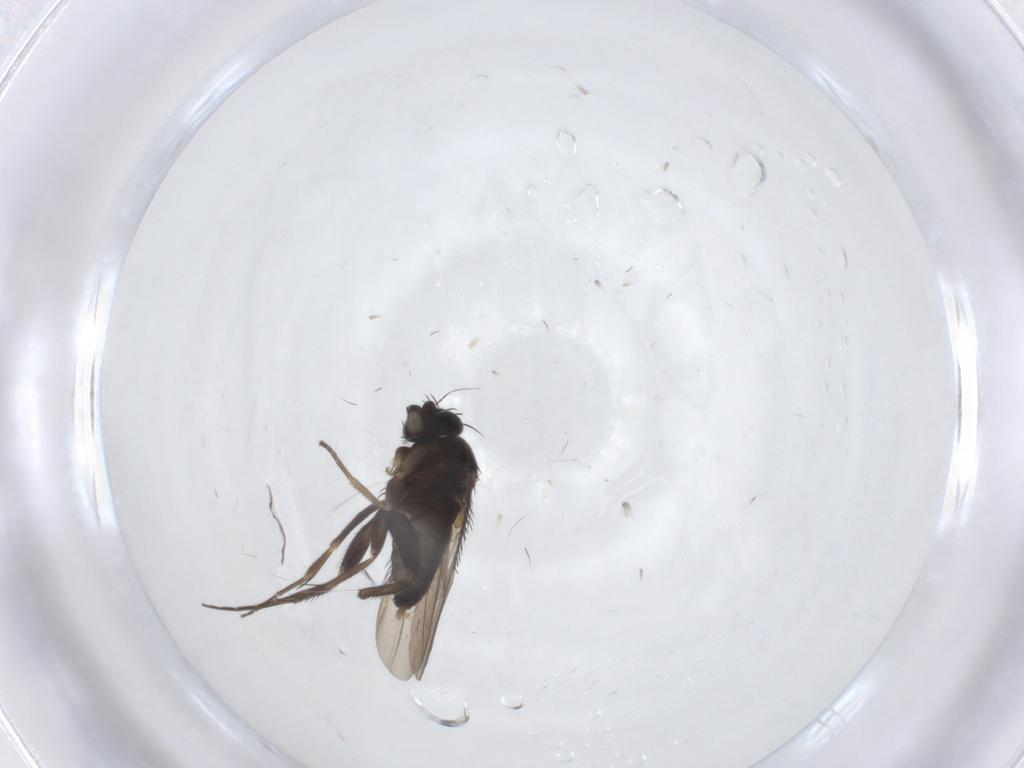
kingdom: Animalia
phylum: Arthropoda
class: Insecta
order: Diptera
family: Phoridae
